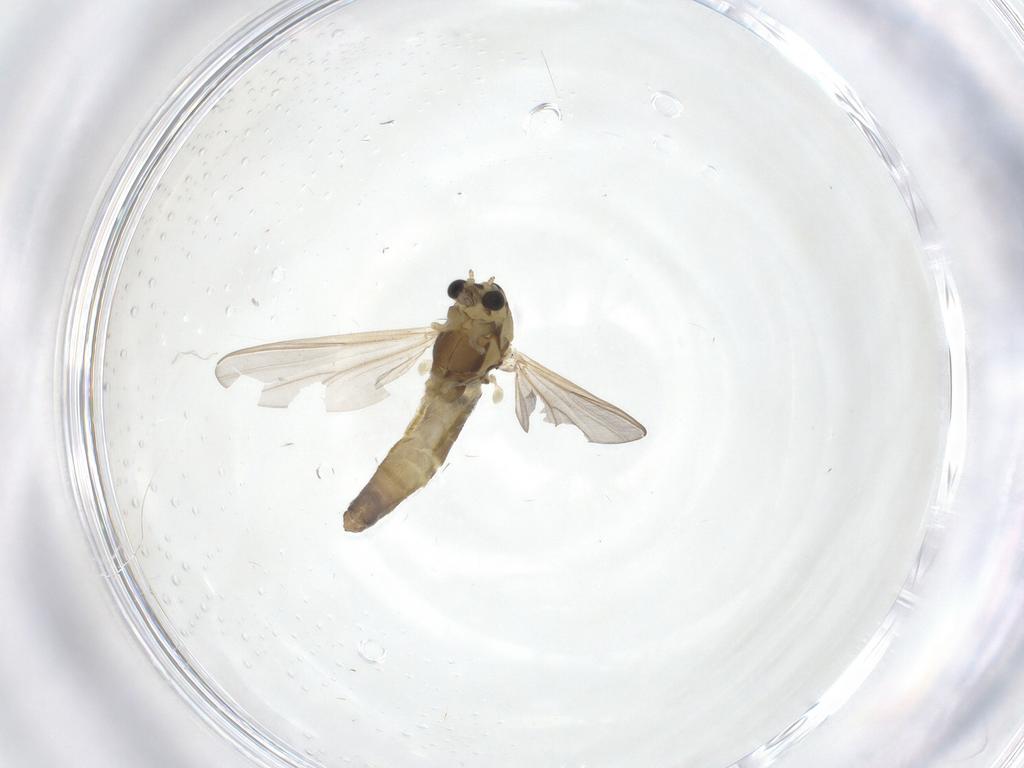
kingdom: Animalia
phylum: Arthropoda
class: Insecta
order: Diptera
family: Chironomidae
